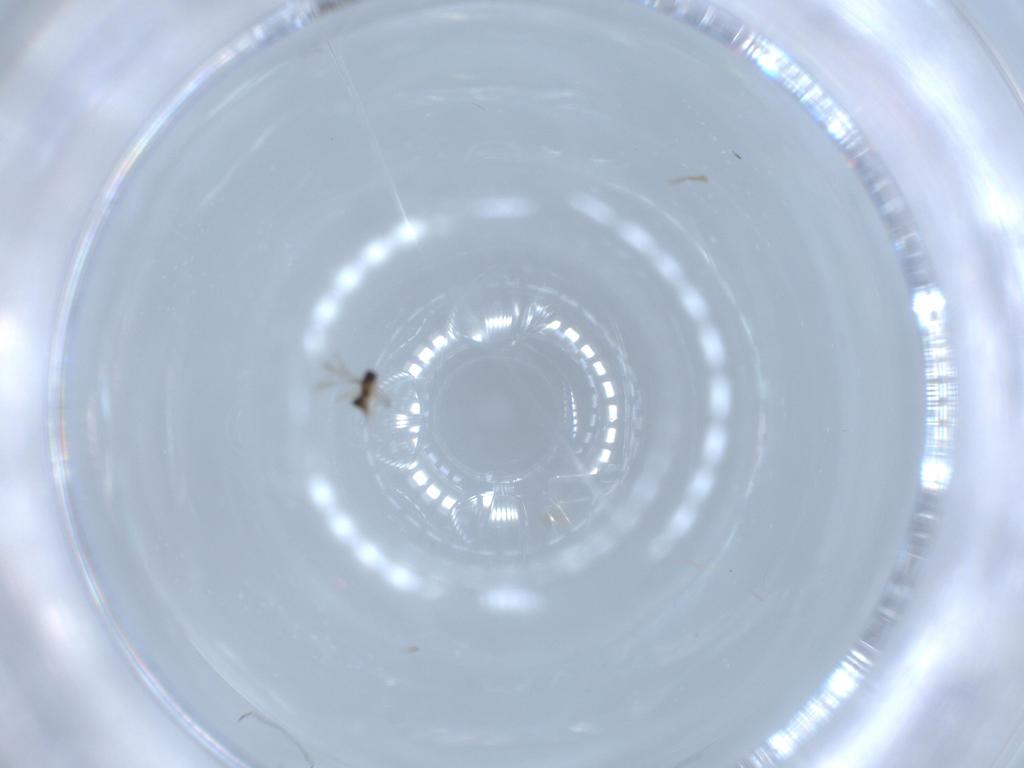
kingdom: Animalia
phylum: Arthropoda
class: Insecta
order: Hymenoptera
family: Mymaridae
